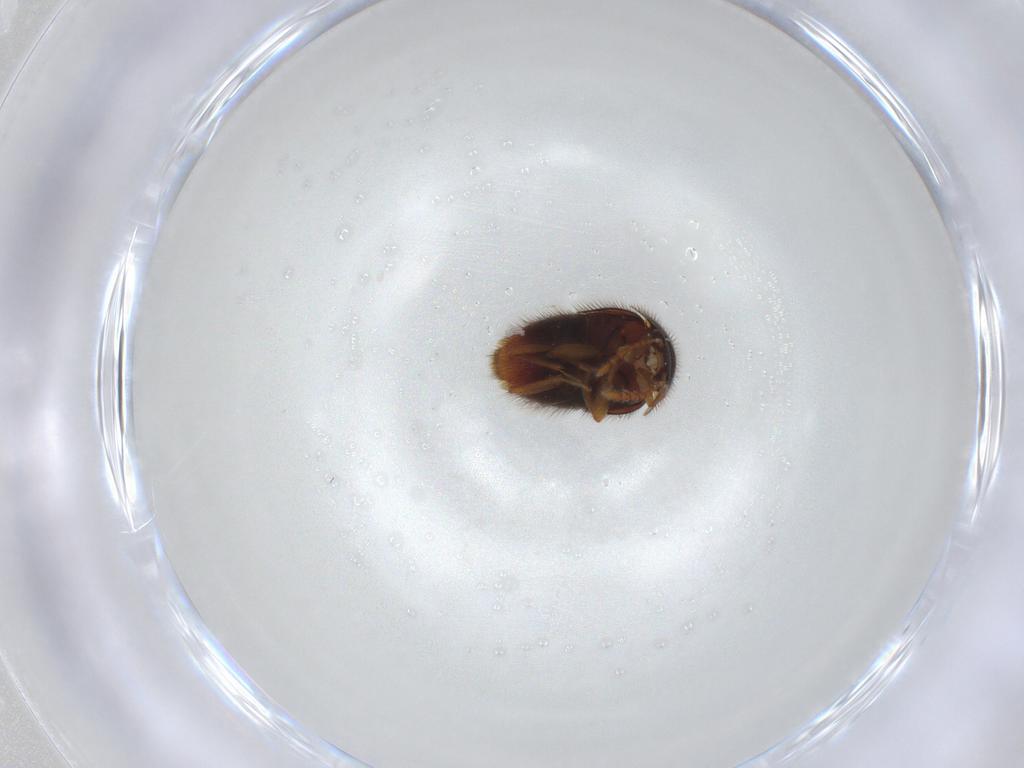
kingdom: Animalia
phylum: Arthropoda
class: Insecta
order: Coleoptera
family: Staphylinidae
